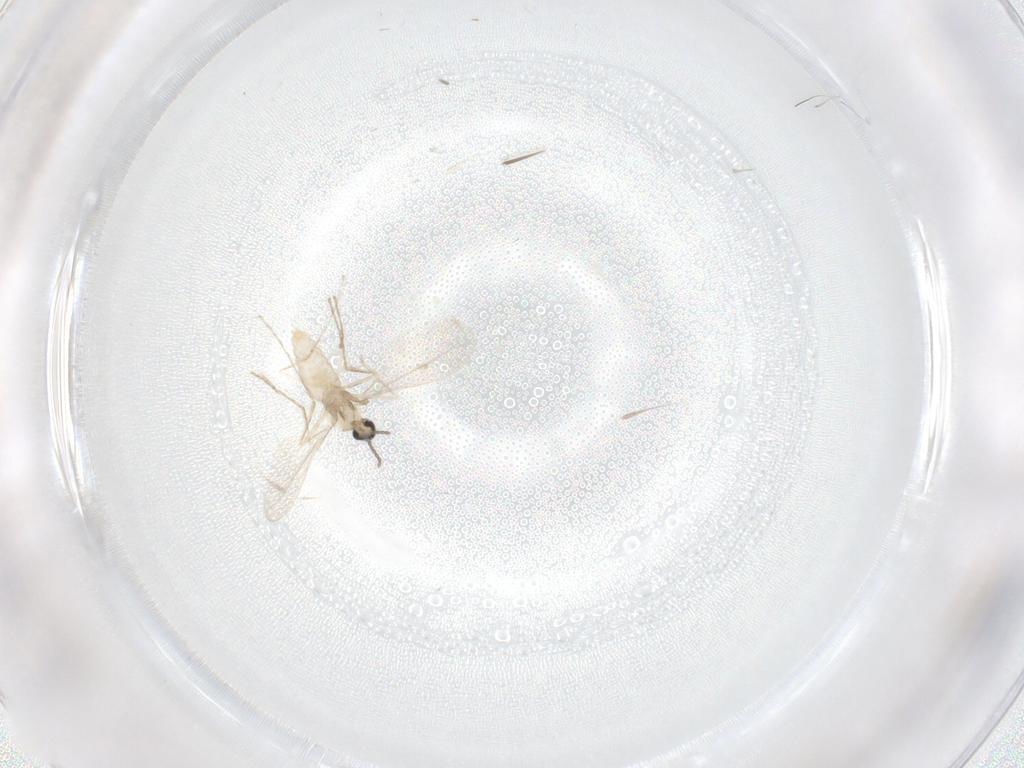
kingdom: Animalia
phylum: Arthropoda
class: Insecta
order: Diptera
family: Cecidomyiidae
